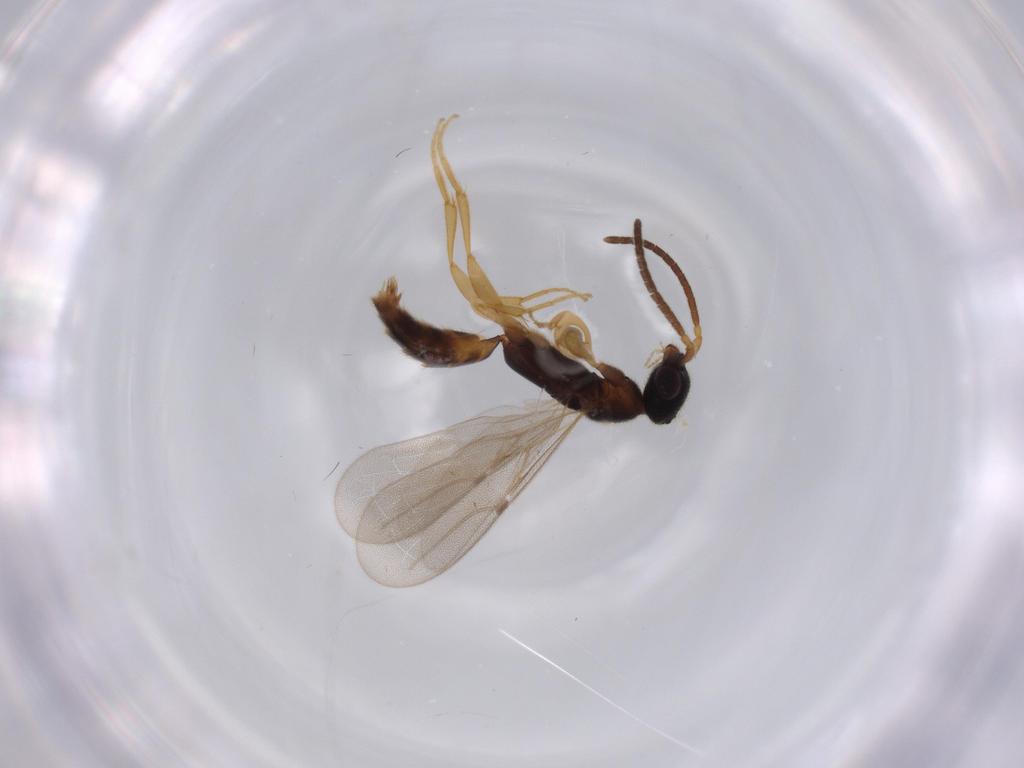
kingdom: Animalia
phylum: Arthropoda
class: Insecta
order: Hymenoptera
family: Bethylidae
